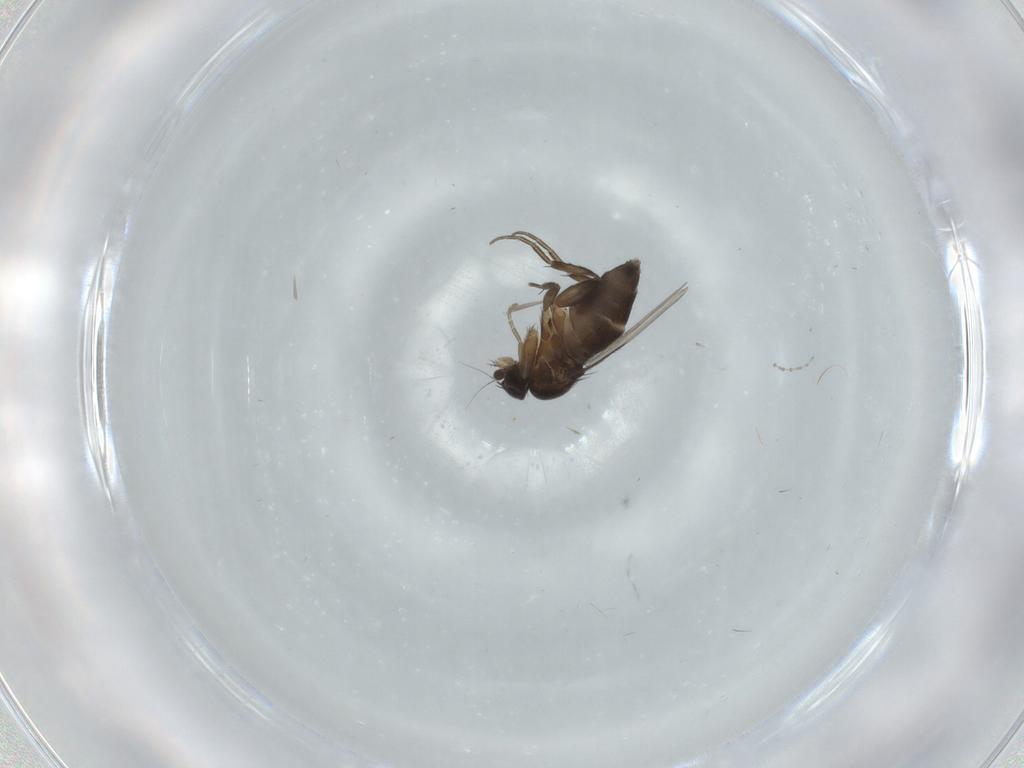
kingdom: Animalia
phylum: Arthropoda
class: Insecta
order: Diptera
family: Phoridae
